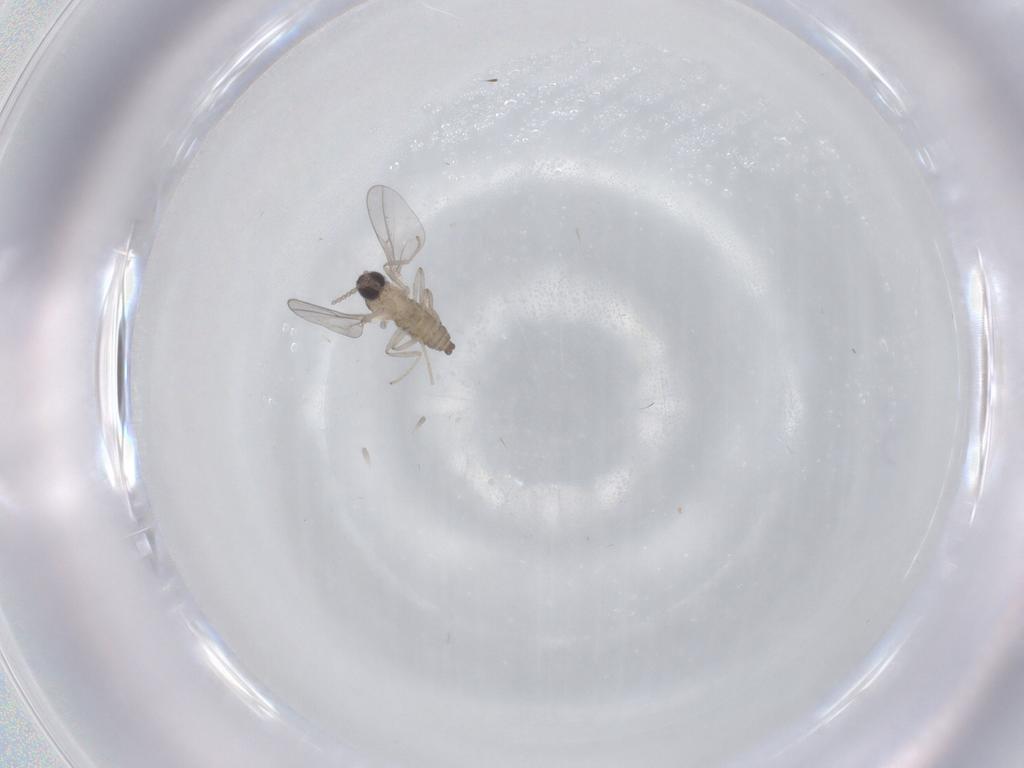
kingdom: Animalia
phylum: Arthropoda
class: Insecta
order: Diptera
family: Cecidomyiidae
